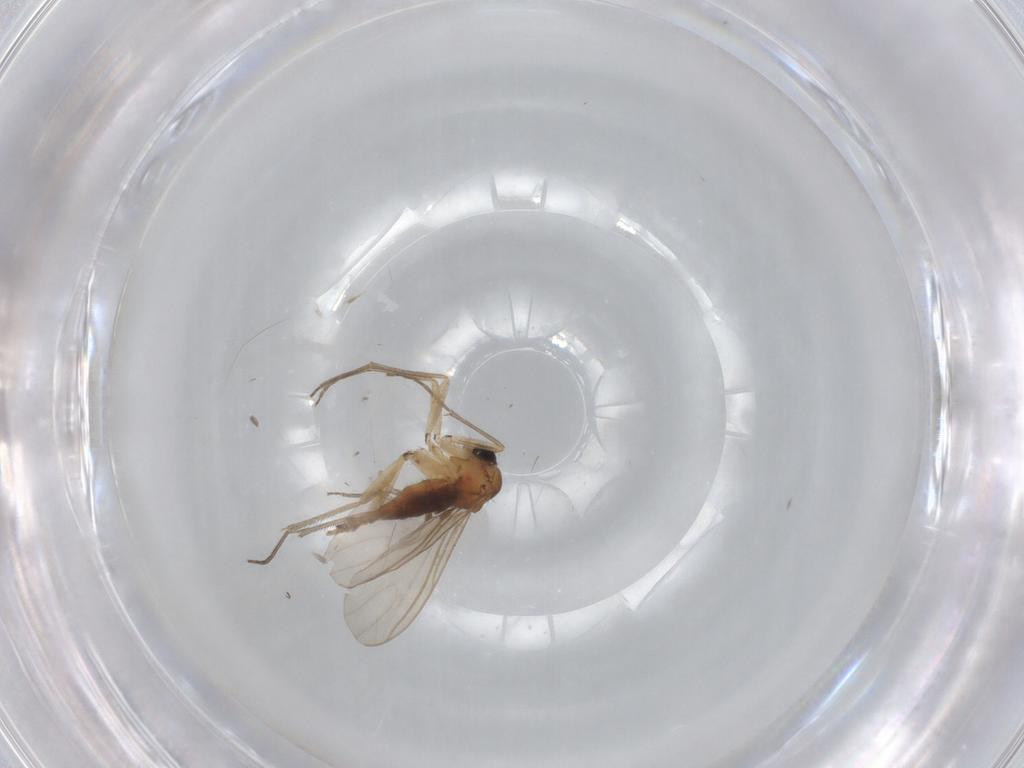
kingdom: Animalia
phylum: Arthropoda
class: Insecta
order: Diptera
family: Sciaridae
